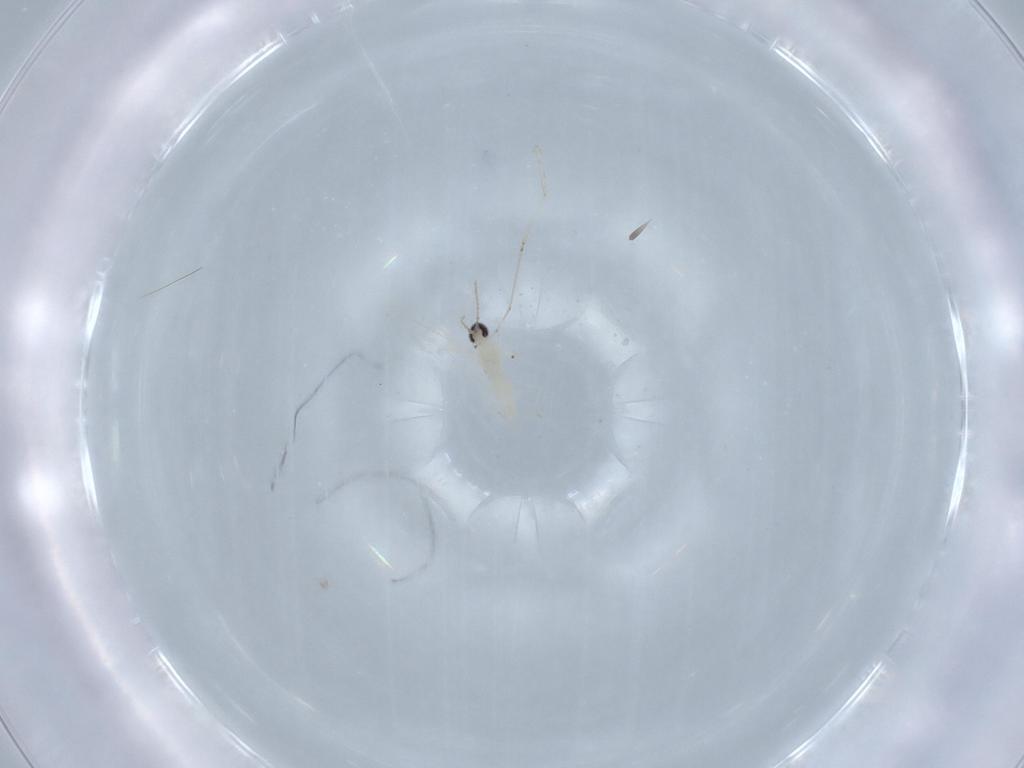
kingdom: Animalia
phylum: Arthropoda
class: Insecta
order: Diptera
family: Cecidomyiidae
